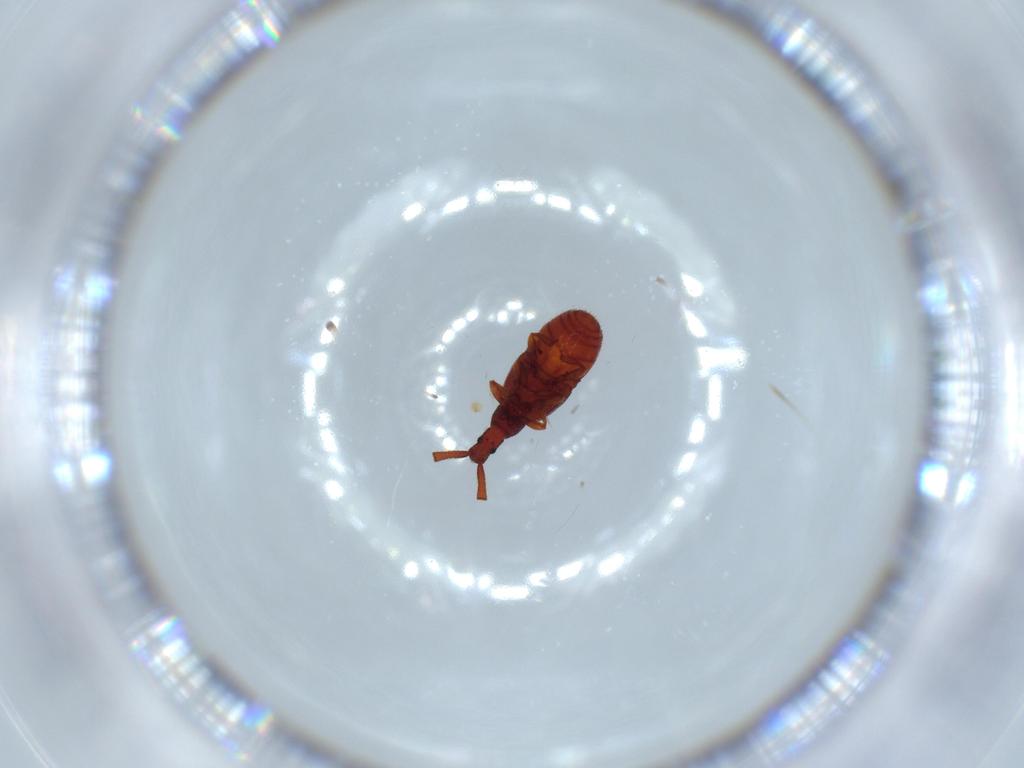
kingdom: Animalia
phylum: Arthropoda
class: Insecta
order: Coleoptera
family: Staphylinidae
